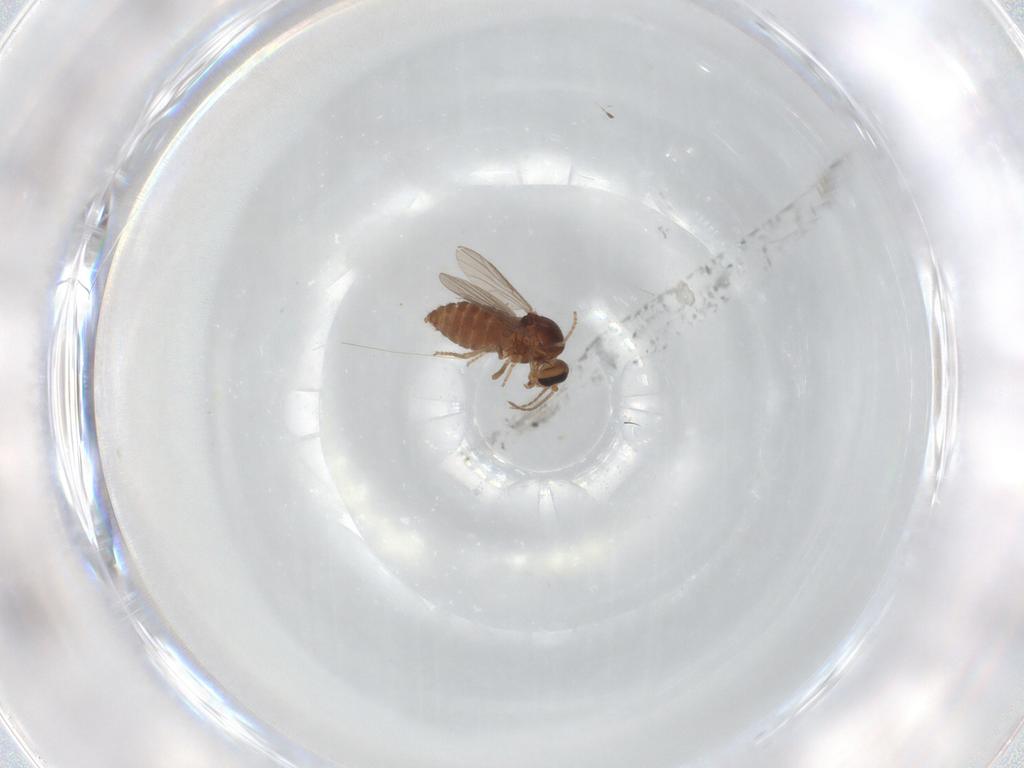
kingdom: Animalia
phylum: Arthropoda
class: Insecta
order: Diptera
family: Ceratopogonidae
